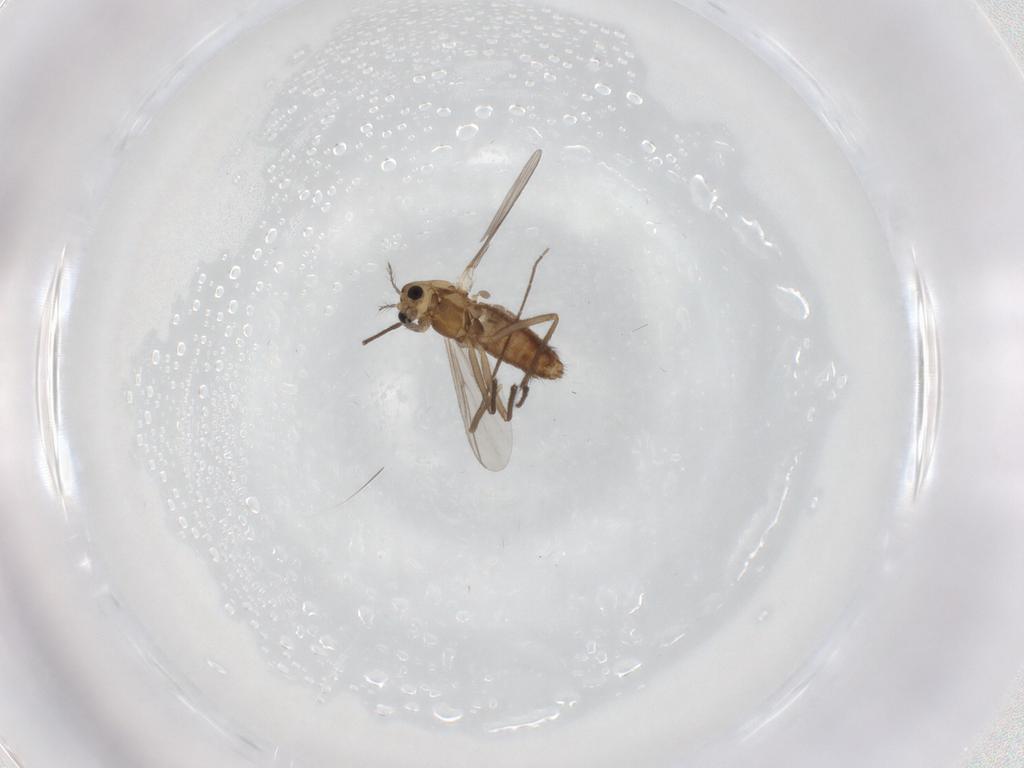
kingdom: Animalia
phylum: Arthropoda
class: Insecta
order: Diptera
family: Chironomidae
